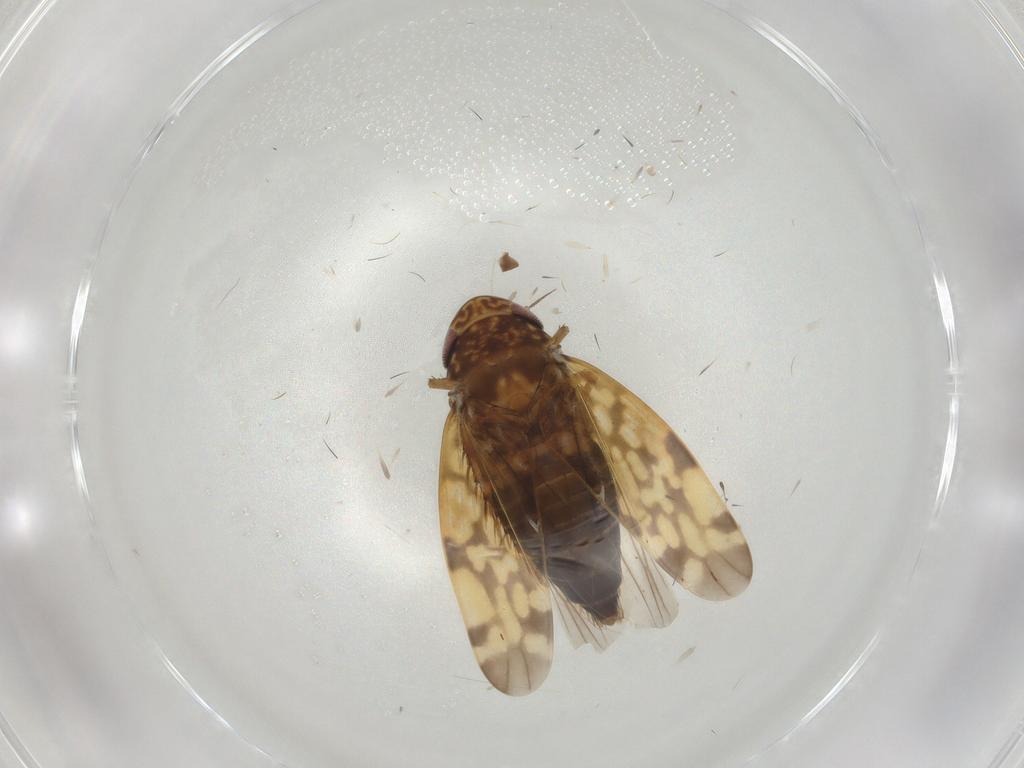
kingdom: Animalia
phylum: Arthropoda
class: Insecta
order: Hemiptera
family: Cicadellidae
